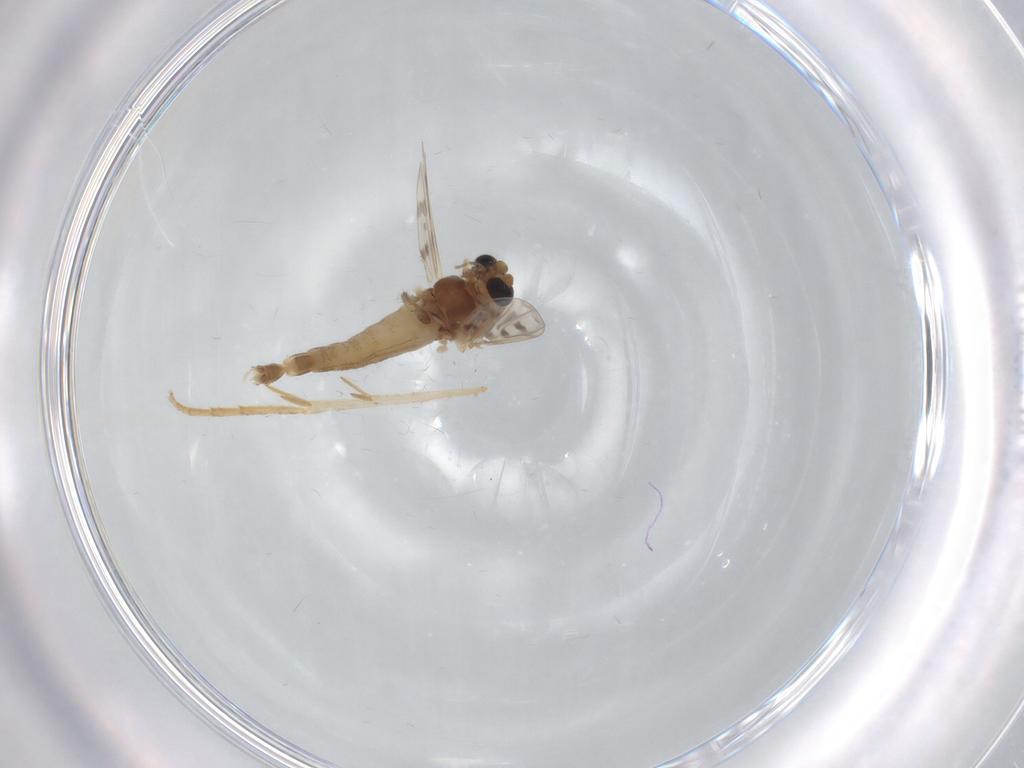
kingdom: Animalia
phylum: Arthropoda
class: Insecta
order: Diptera
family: Chironomidae
